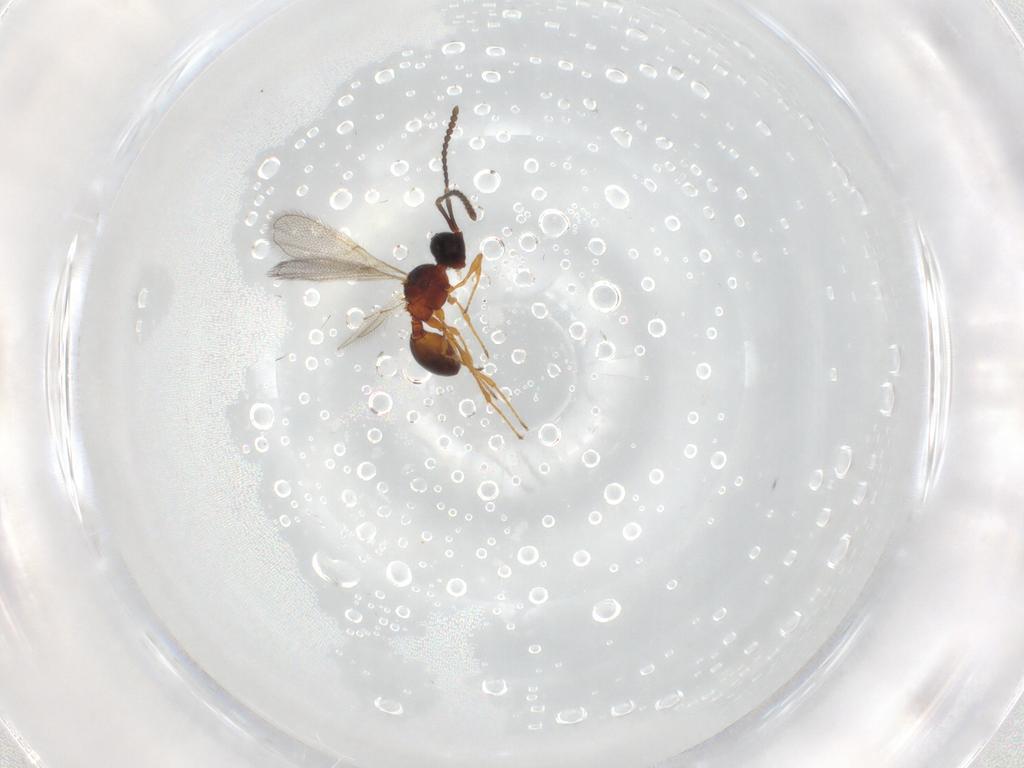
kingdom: Animalia
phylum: Arthropoda
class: Insecta
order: Hymenoptera
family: Diapriidae
